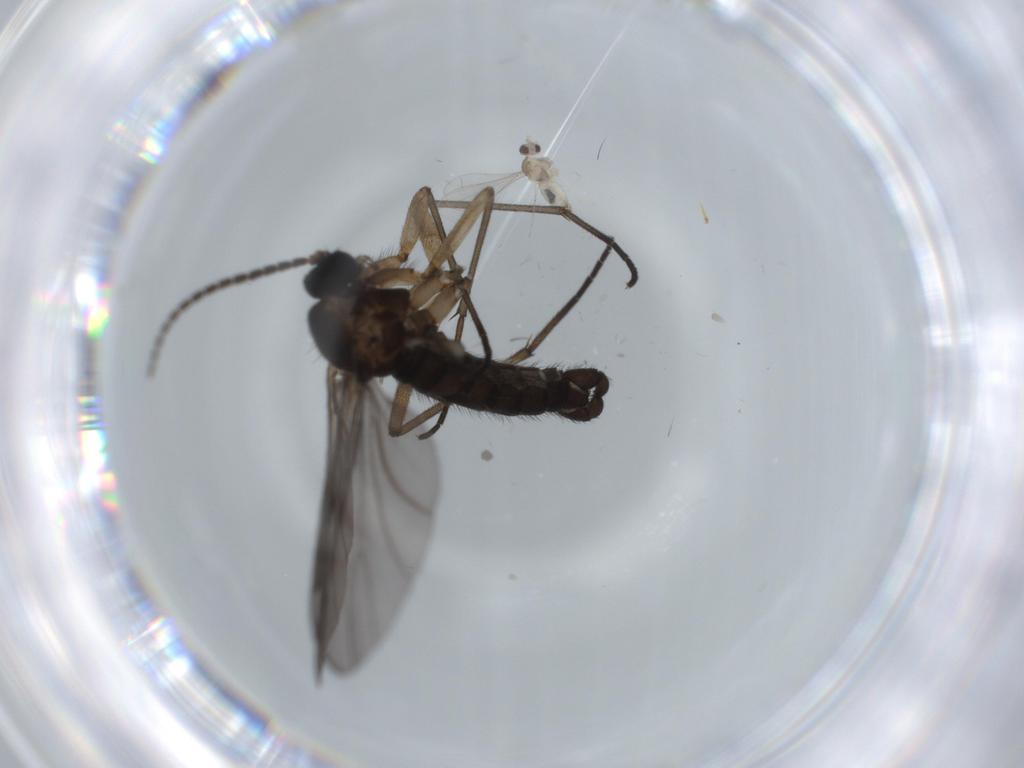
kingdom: Animalia
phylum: Arthropoda
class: Insecta
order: Diptera
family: Sciaridae
